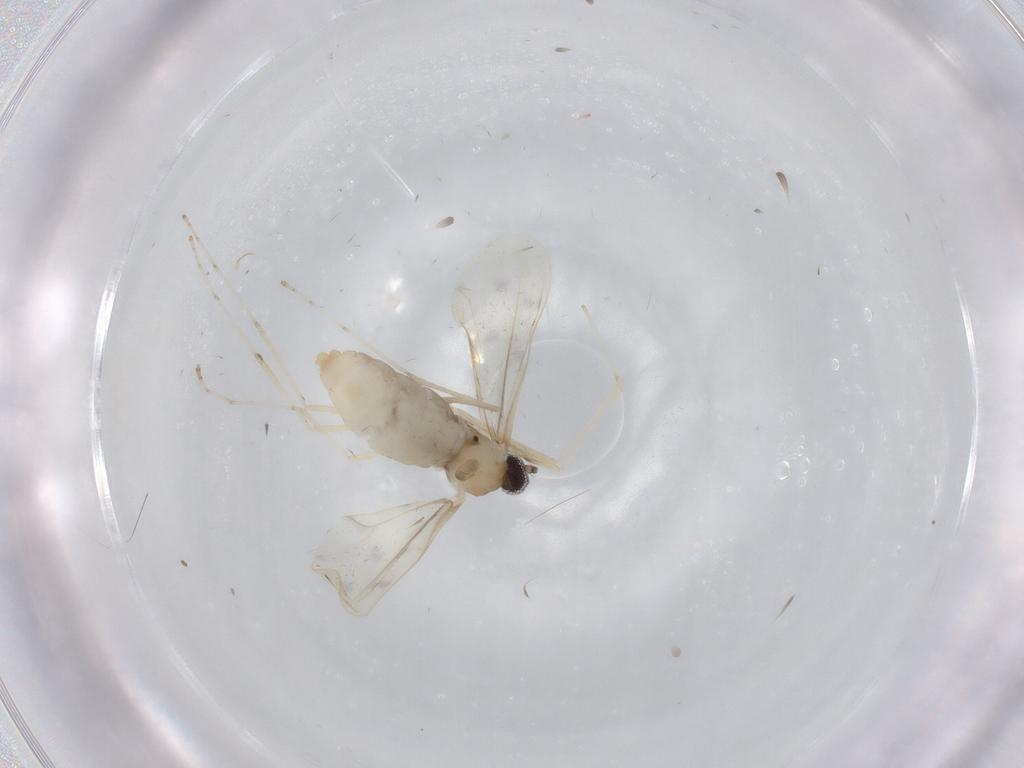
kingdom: Animalia
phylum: Arthropoda
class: Insecta
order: Diptera
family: Cecidomyiidae
